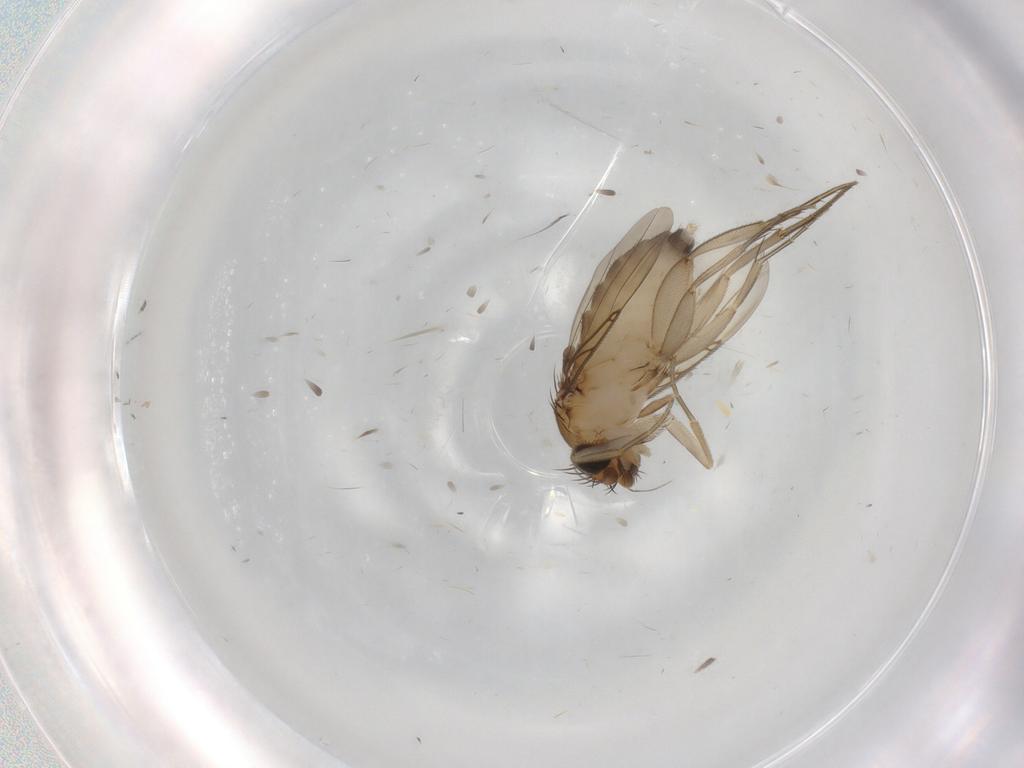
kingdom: Animalia
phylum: Arthropoda
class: Insecta
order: Diptera
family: Phoridae
